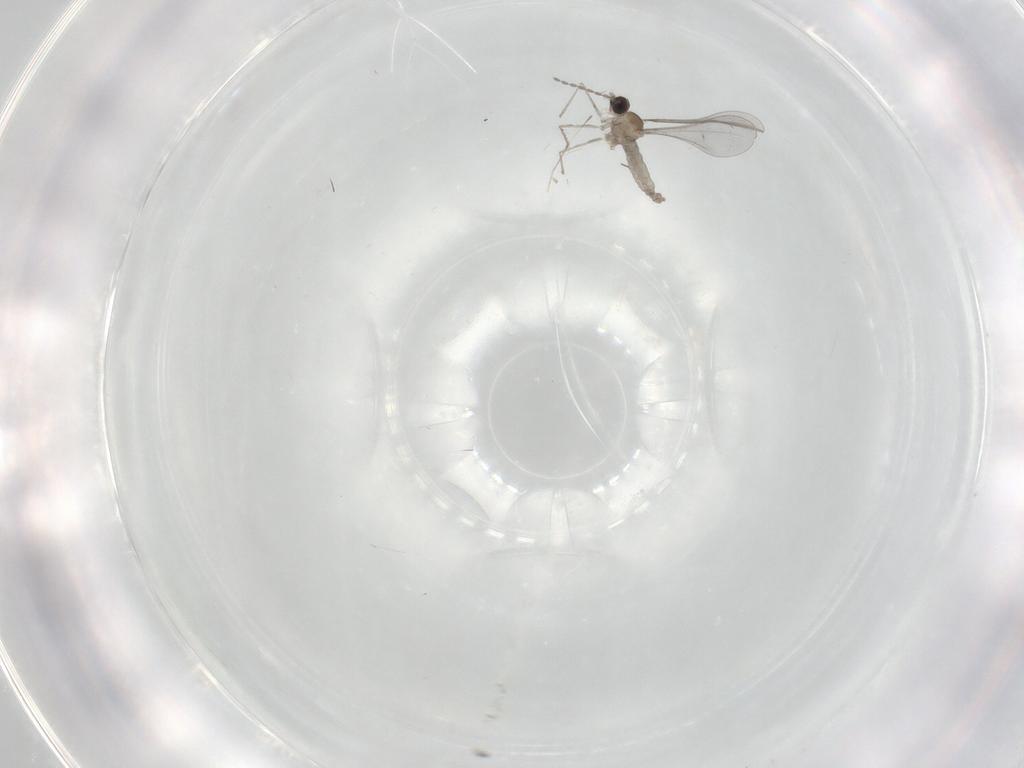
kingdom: Animalia
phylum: Arthropoda
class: Insecta
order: Diptera
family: Cecidomyiidae
